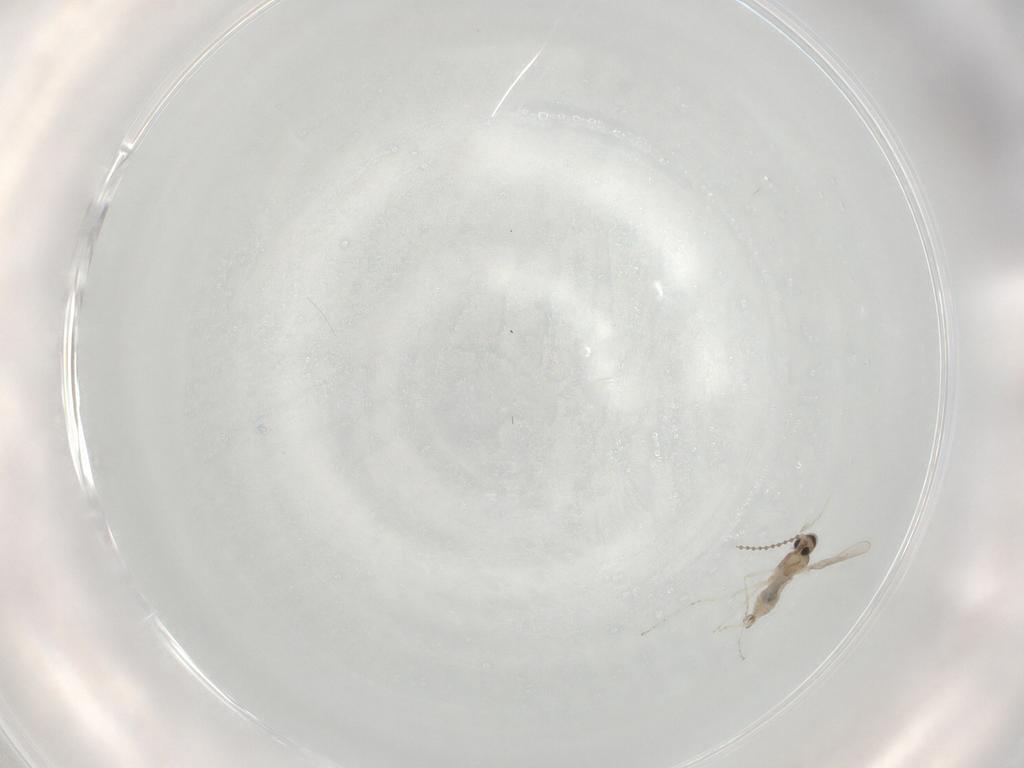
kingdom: Animalia
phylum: Arthropoda
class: Insecta
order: Diptera
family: Cecidomyiidae
